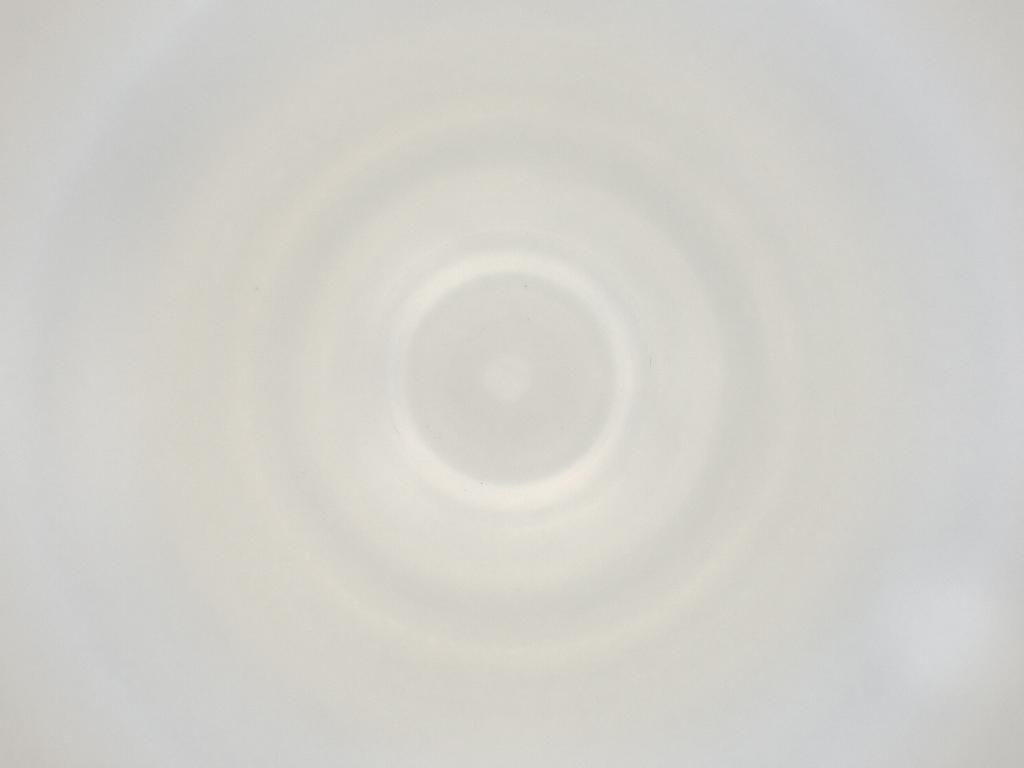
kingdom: Animalia
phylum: Arthropoda
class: Insecta
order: Diptera
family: Cecidomyiidae
